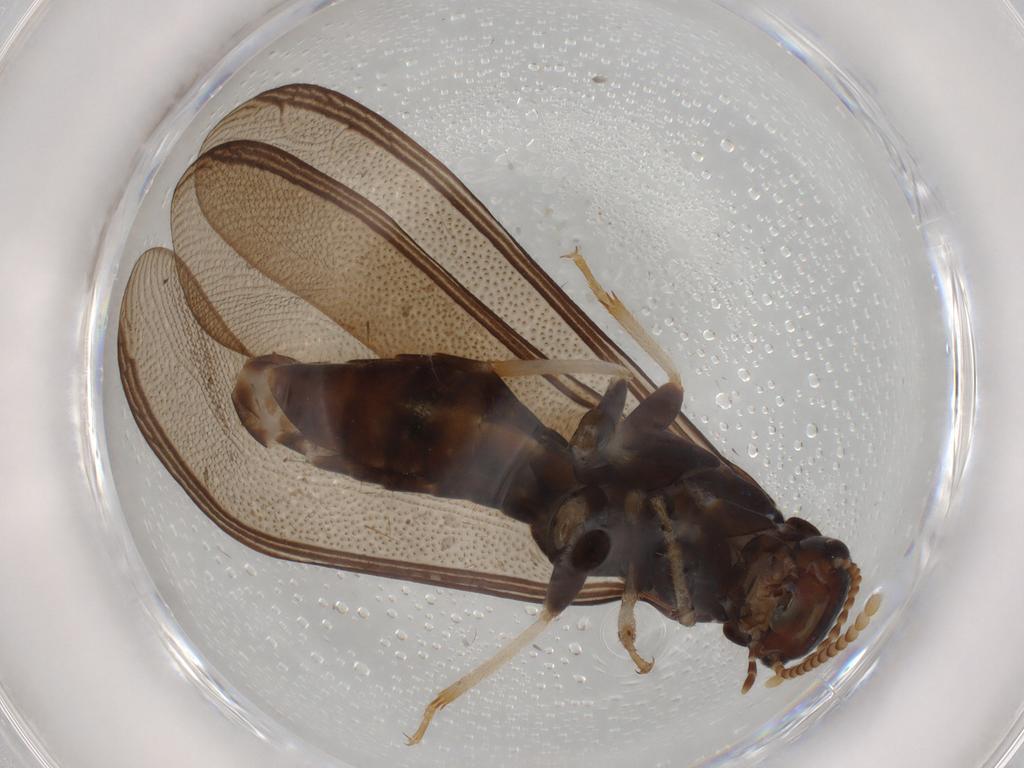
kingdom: Animalia
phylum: Arthropoda
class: Insecta
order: Blattodea
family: Kalotermitidae
